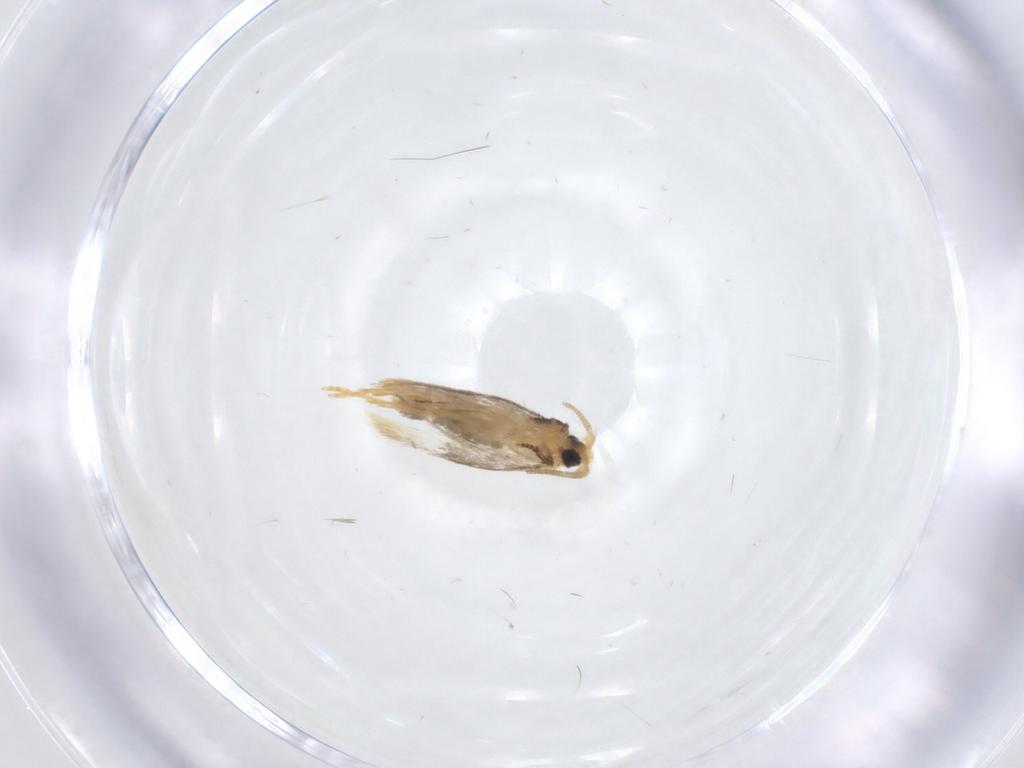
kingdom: Animalia
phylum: Arthropoda
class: Insecta
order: Lepidoptera
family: Nepticulidae
